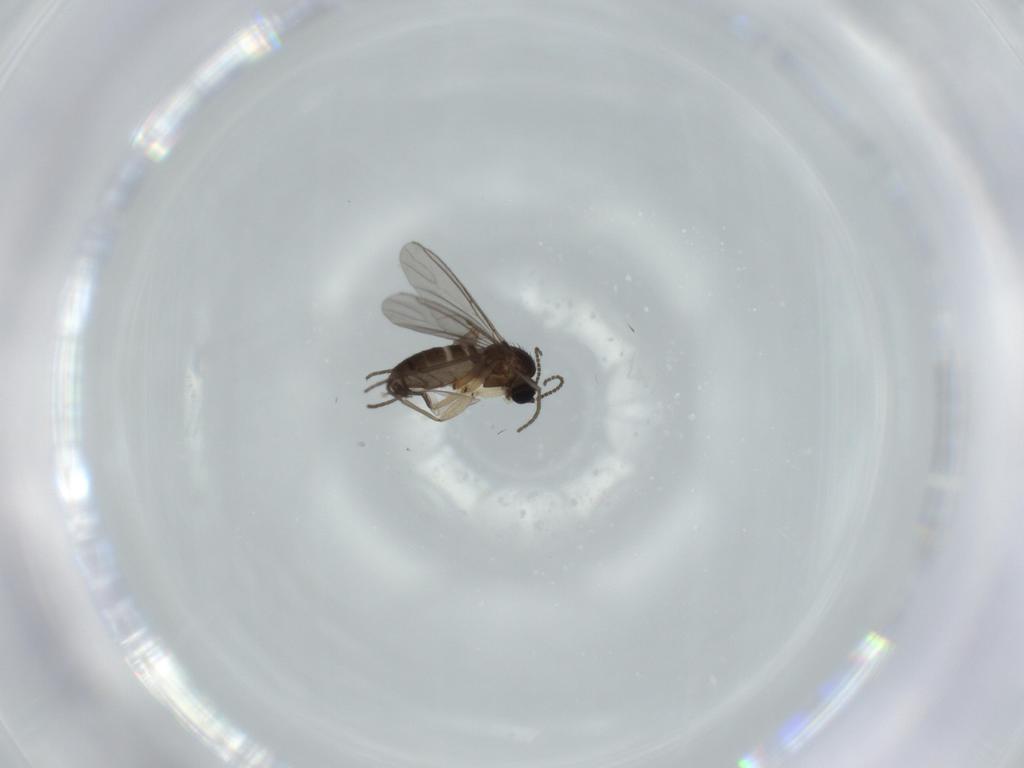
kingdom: Animalia
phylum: Arthropoda
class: Insecta
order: Diptera
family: Sciaridae
